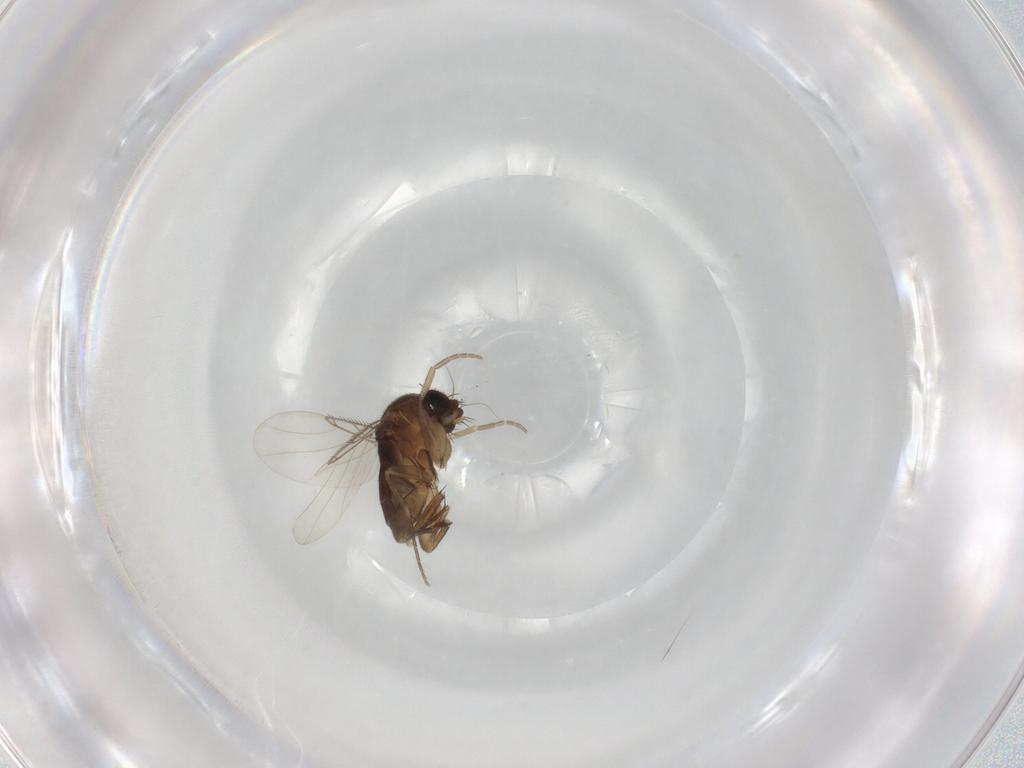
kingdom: Animalia
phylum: Arthropoda
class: Insecta
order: Diptera
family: Phoridae
